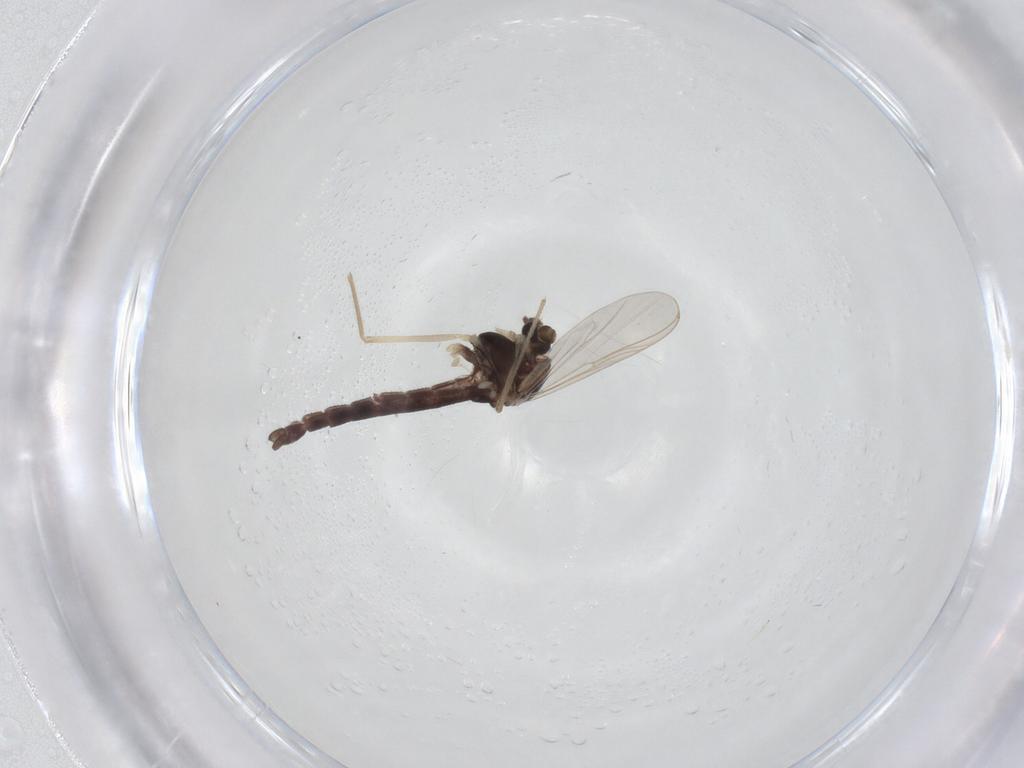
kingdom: Animalia
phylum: Arthropoda
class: Insecta
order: Diptera
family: Chironomidae
